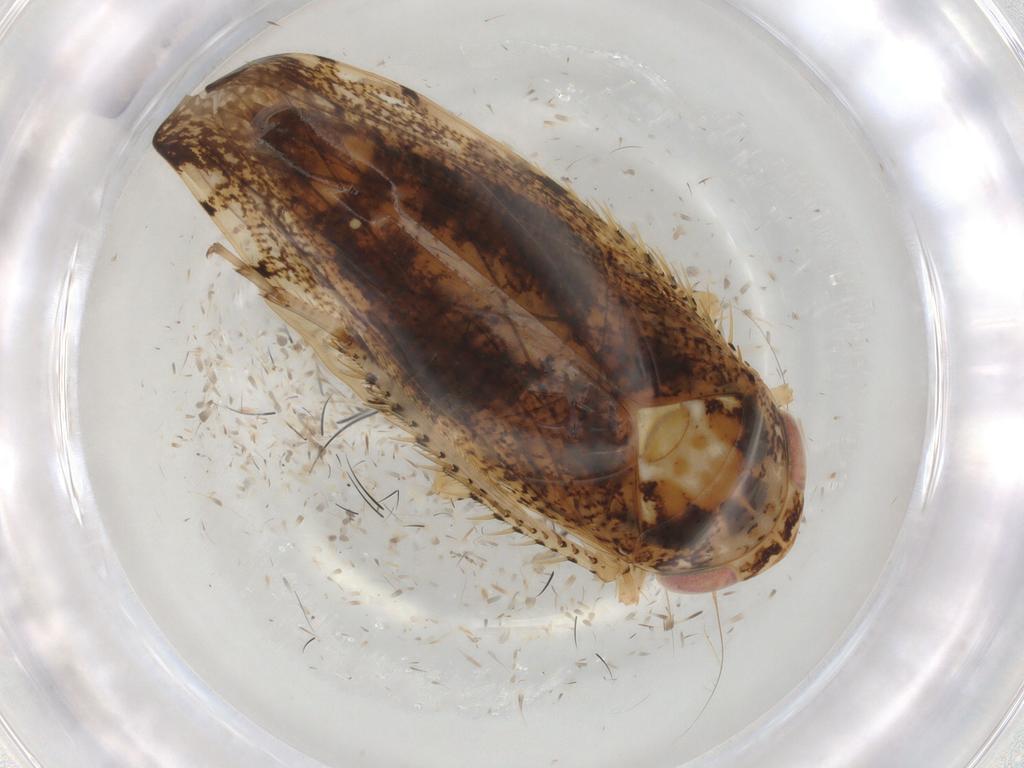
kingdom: Animalia
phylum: Arthropoda
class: Insecta
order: Hemiptera
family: Cicadellidae
